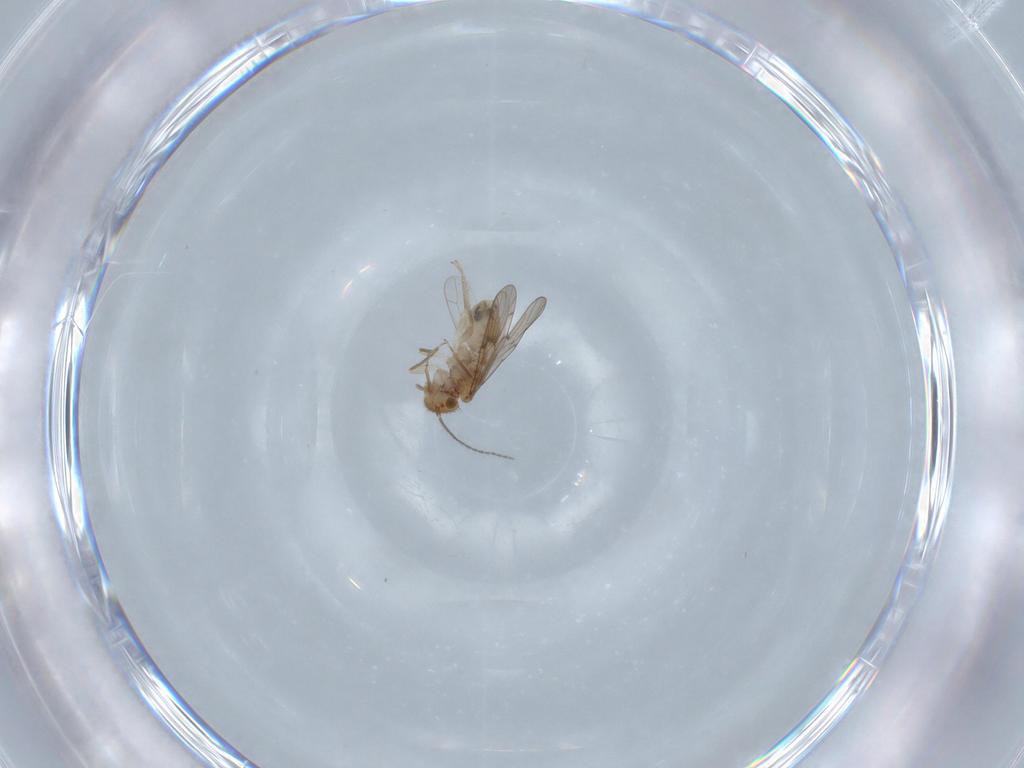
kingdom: Animalia
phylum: Arthropoda
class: Insecta
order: Psocodea
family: Ectopsocidae
